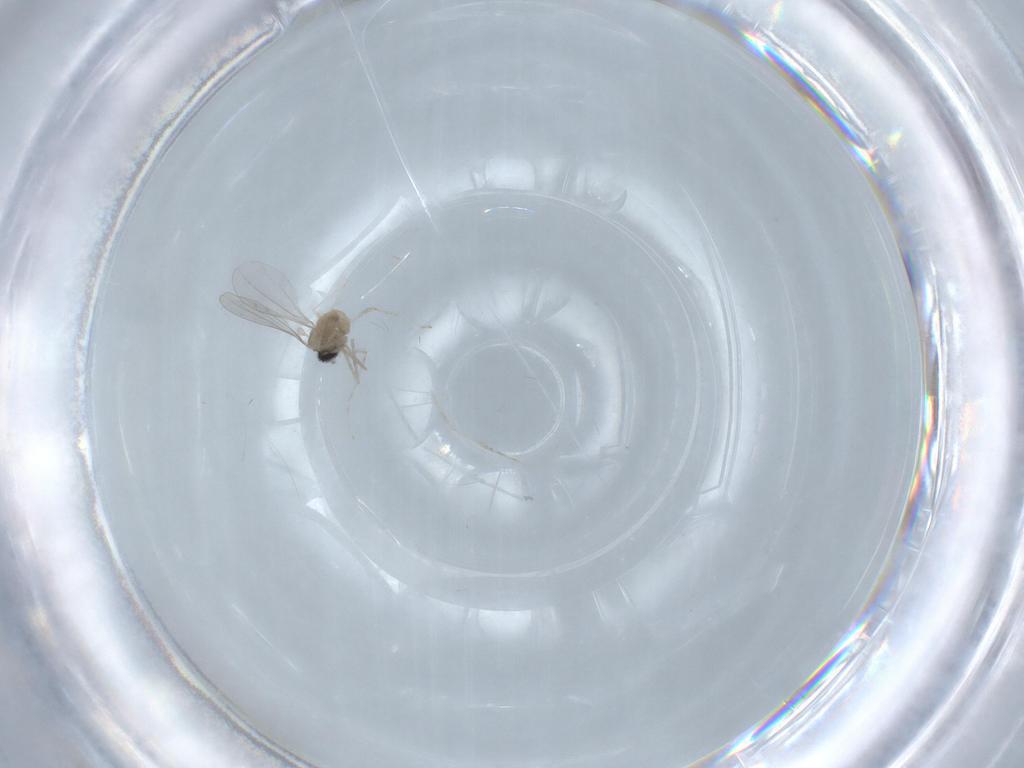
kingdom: Animalia
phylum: Arthropoda
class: Insecta
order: Diptera
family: Cecidomyiidae
